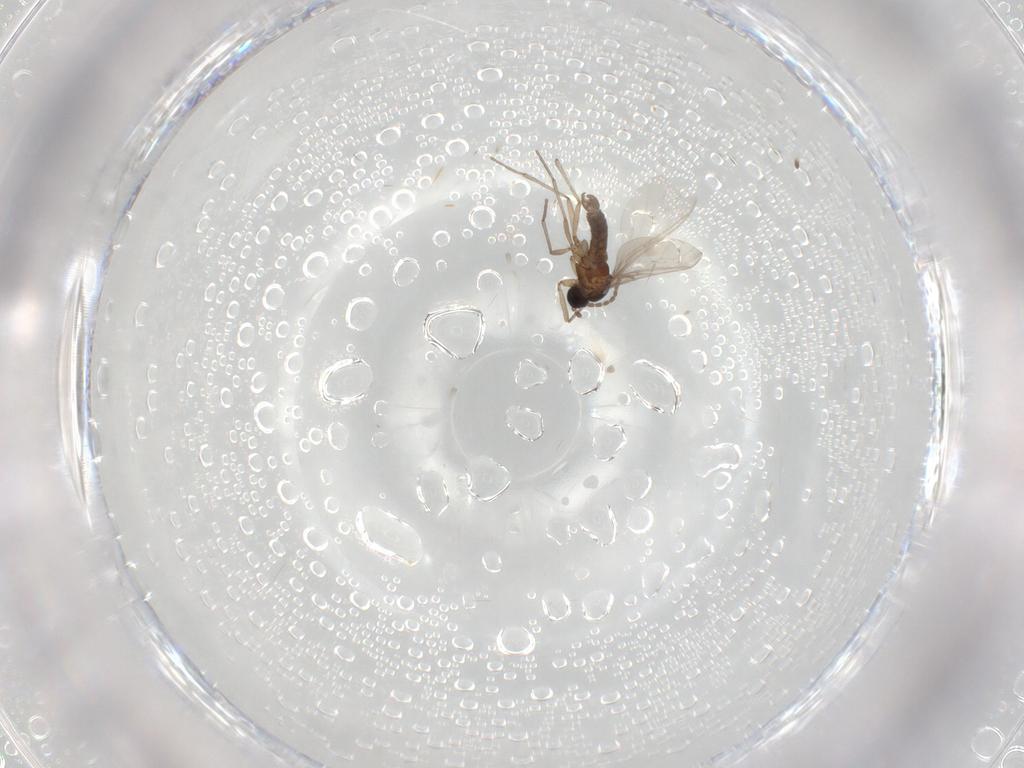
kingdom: Animalia
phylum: Arthropoda
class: Insecta
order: Diptera
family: Sciaridae
